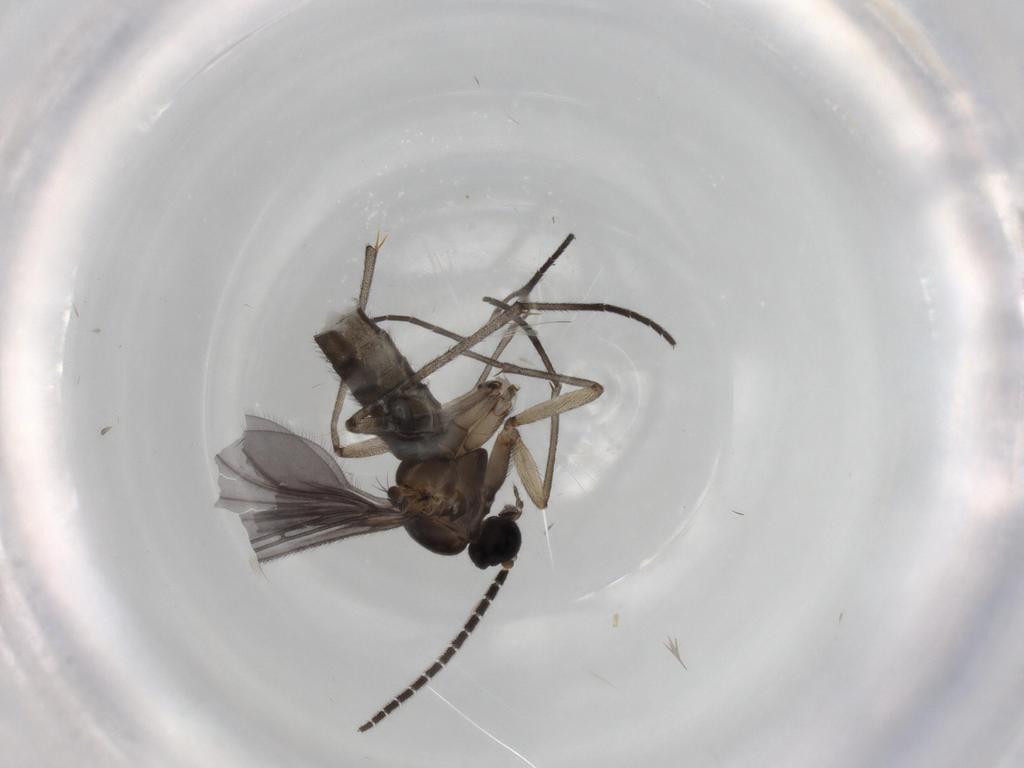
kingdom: Animalia
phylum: Arthropoda
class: Insecta
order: Diptera
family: Sciaridae
